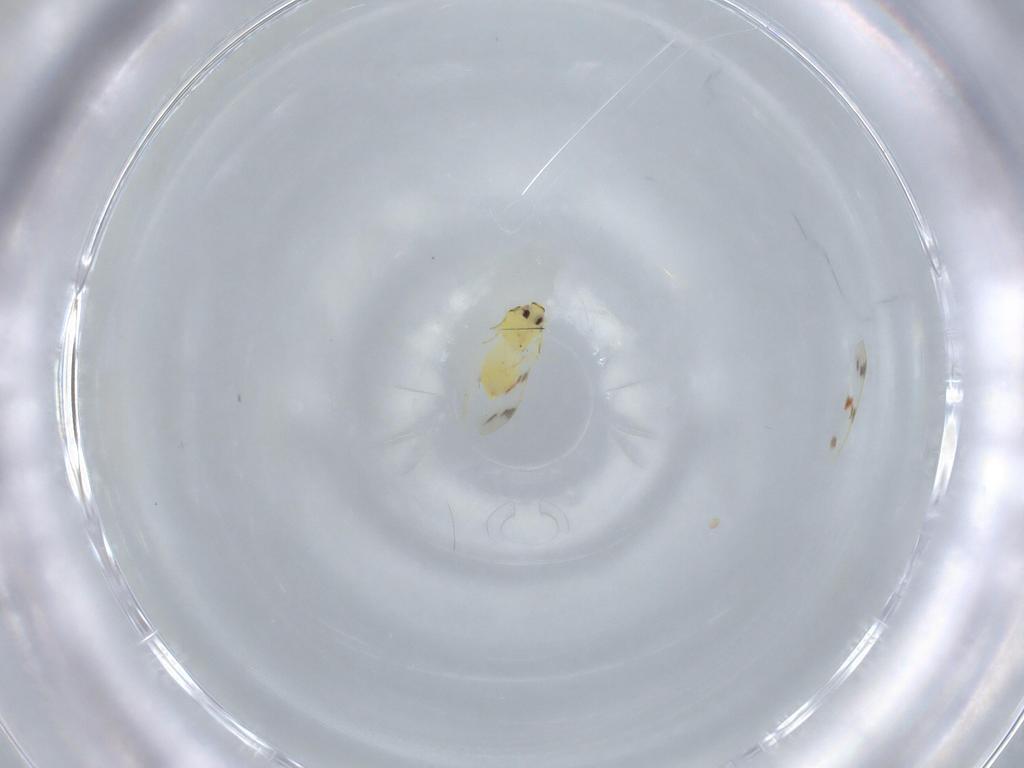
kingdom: Animalia
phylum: Arthropoda
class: Insecta
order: Hemiptera
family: Aleyrodidae
